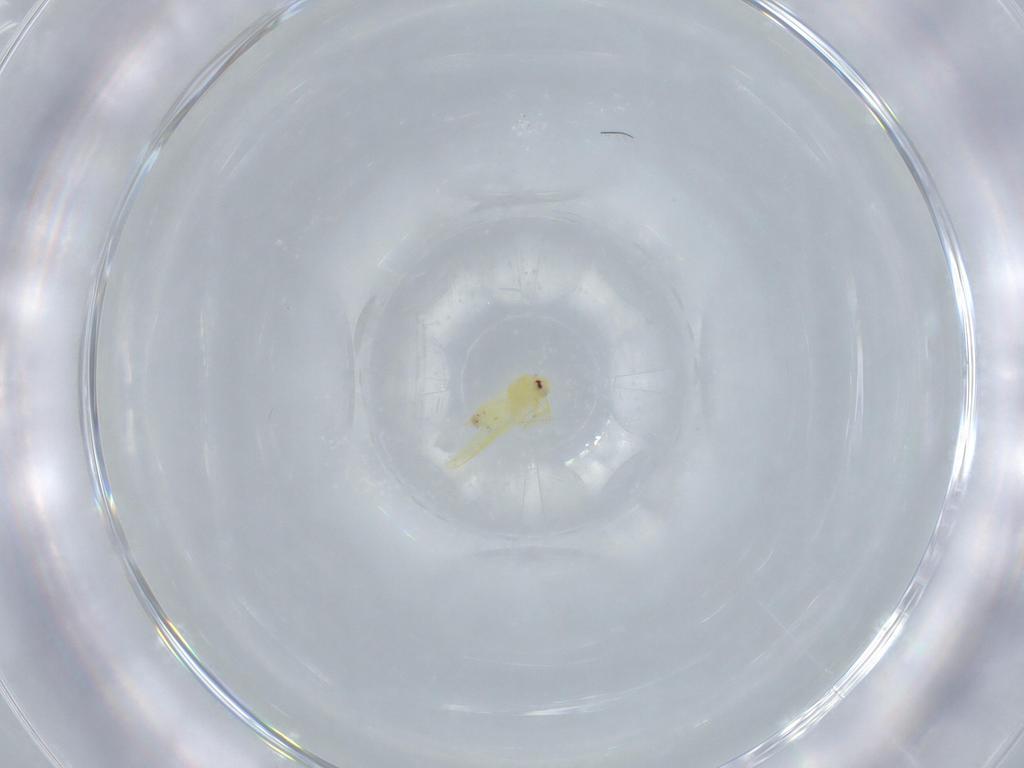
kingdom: Animalia
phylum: Arthropoda
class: Insecta
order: Hemiptera
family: Aleyrodidae
